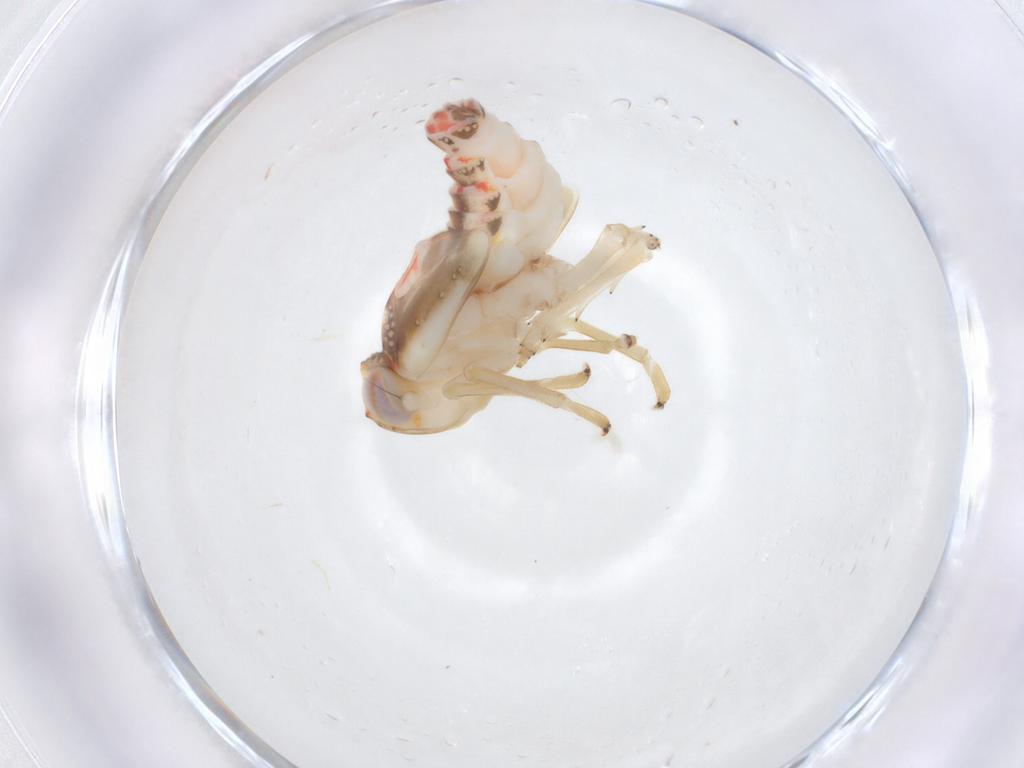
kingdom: Animalia
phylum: Arthropoda
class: Insecta
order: Hemiptera
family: Nogodinidae
